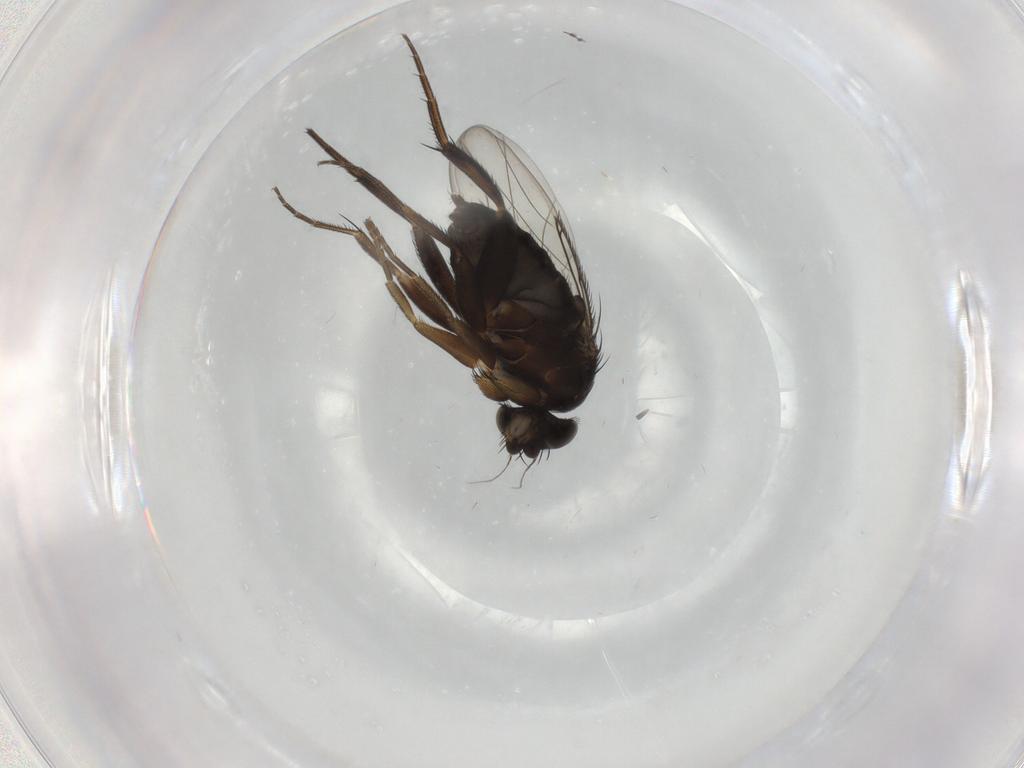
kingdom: Animalia
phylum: Arthropoda
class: Insecta
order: Diptera
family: Phoridae
